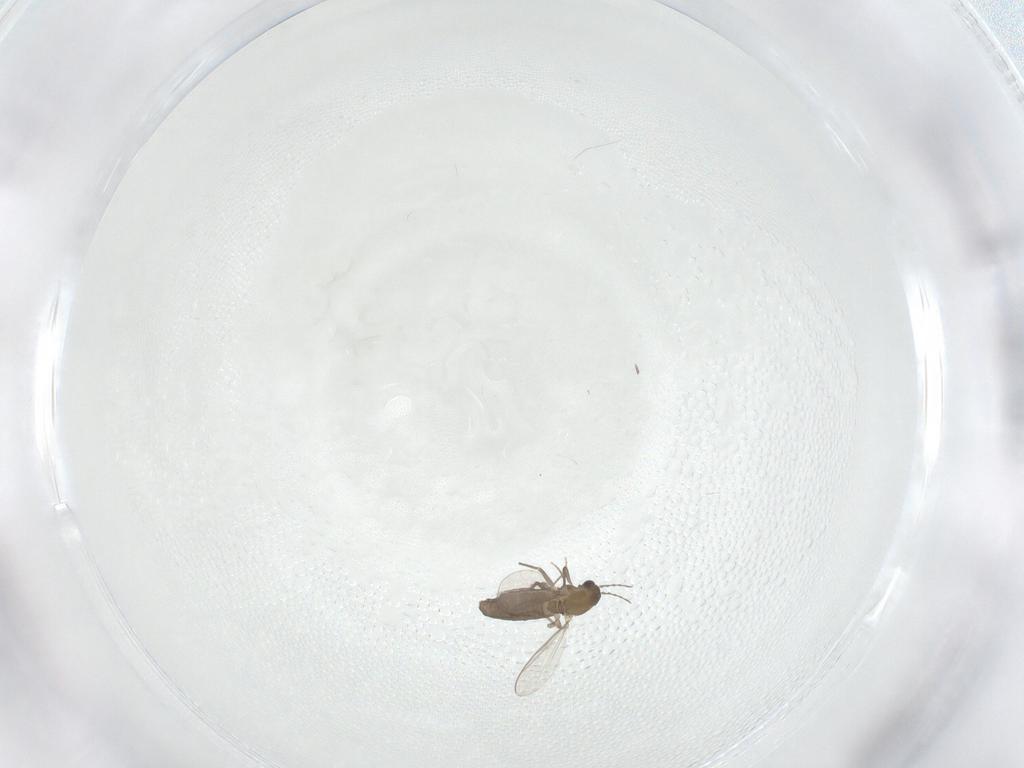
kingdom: Animalia
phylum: Arthropoda
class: Insecta
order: Diptera
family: Chironomidae
